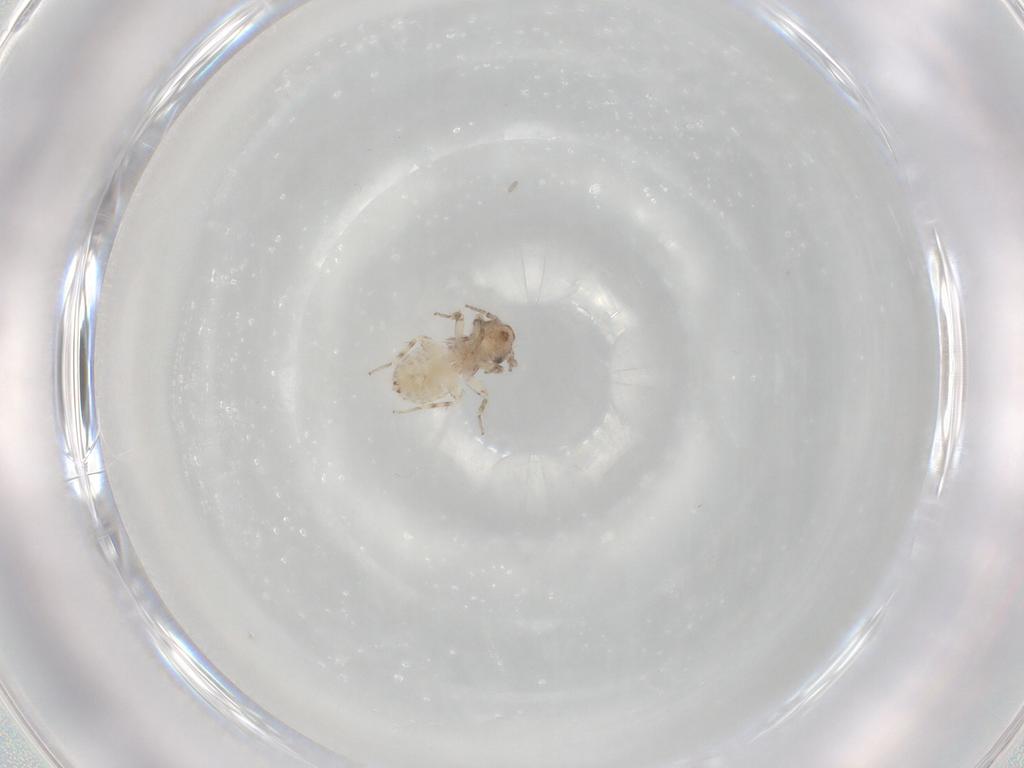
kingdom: Animalia
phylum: Arthropoda
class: Insecta
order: Psocodea
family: Lepidopsocidae
